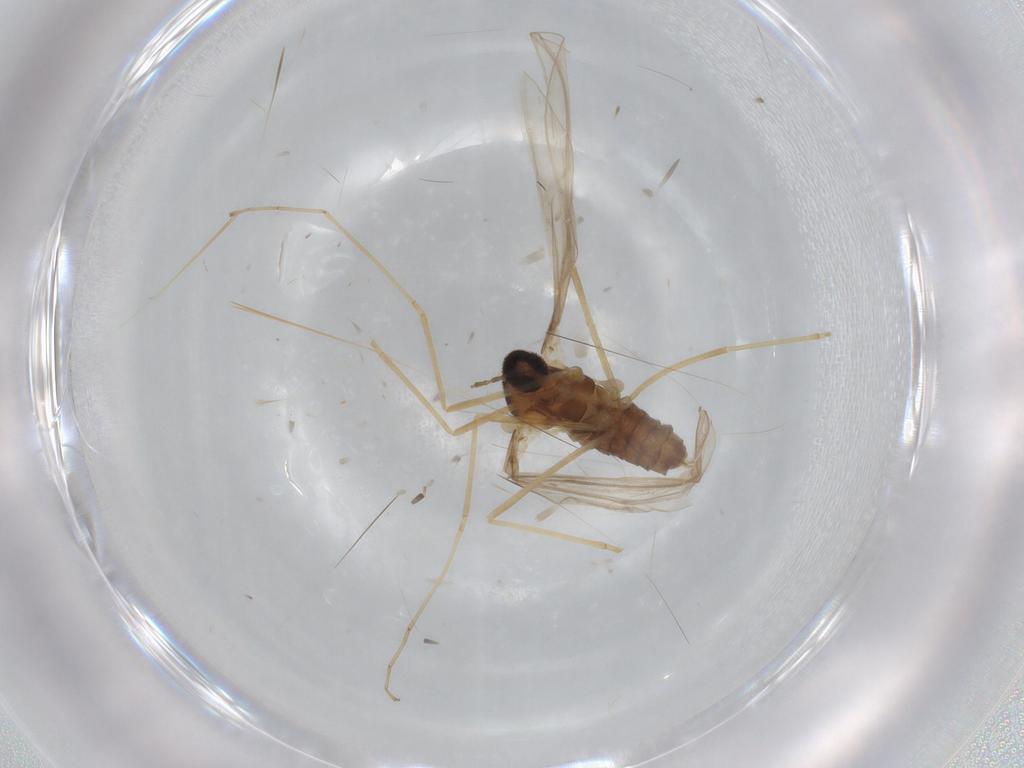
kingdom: Animalia
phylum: Arthropoda
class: Insecta
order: Diptera
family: Cecidomyiidae
